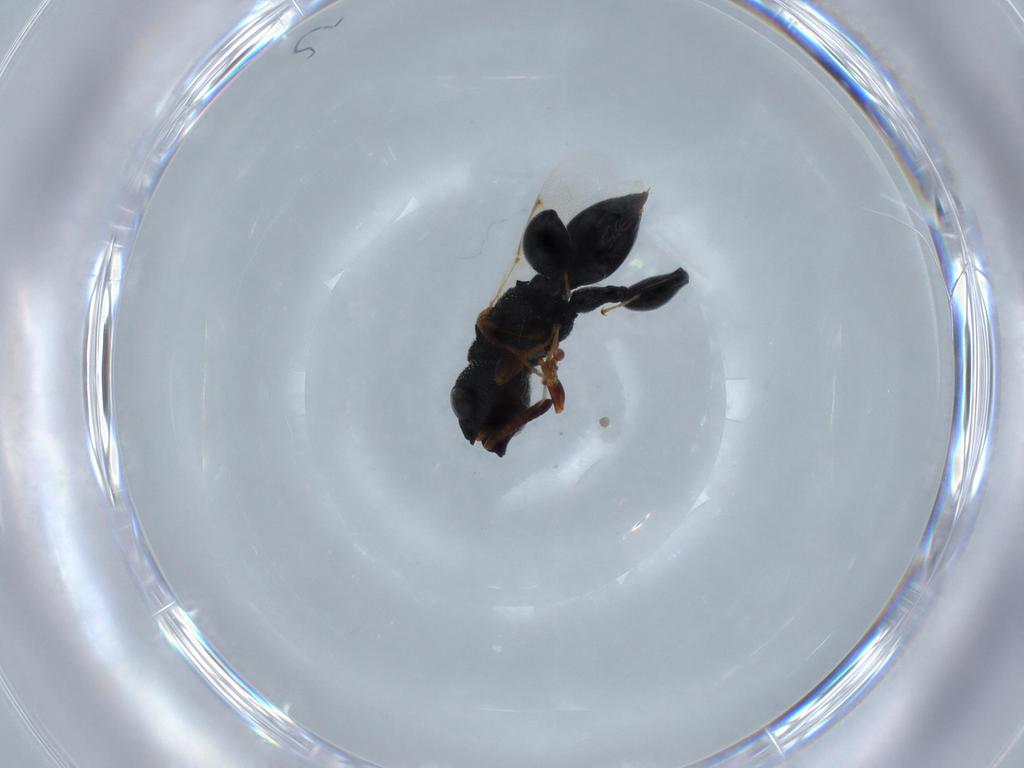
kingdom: Animalia
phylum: Arthropoda
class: Insecta
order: Hymenoptera
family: Chalcididae
